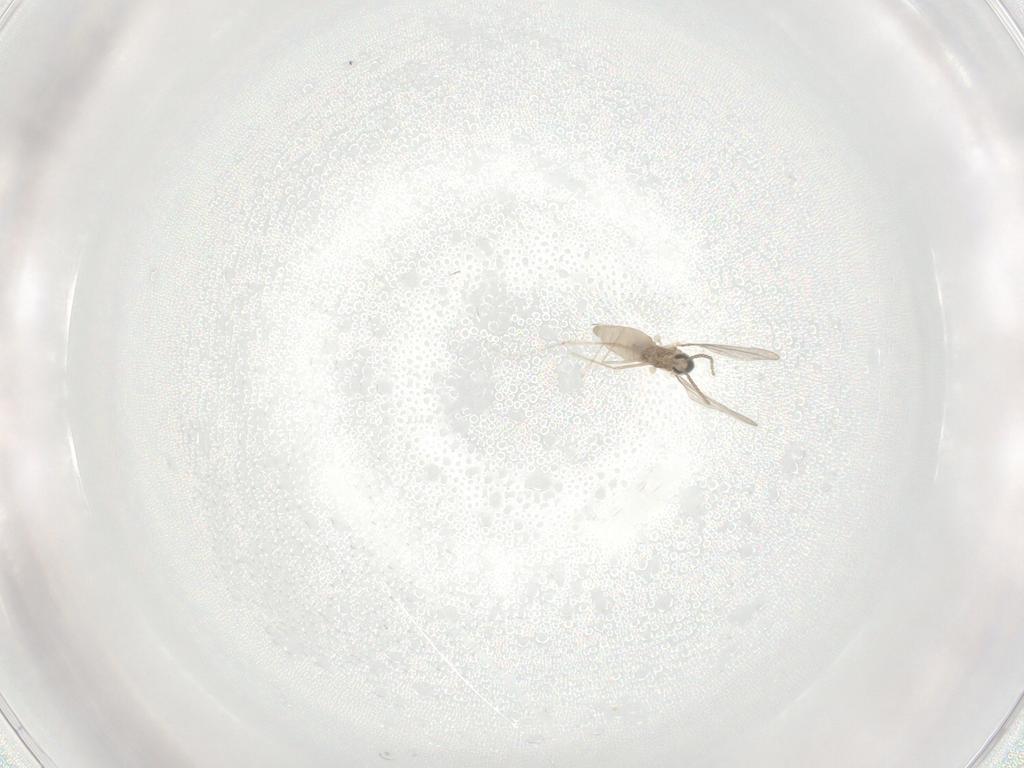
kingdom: Animalia
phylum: Arthropoda
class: Insecta
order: Diptera
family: Cecidomyiidae
